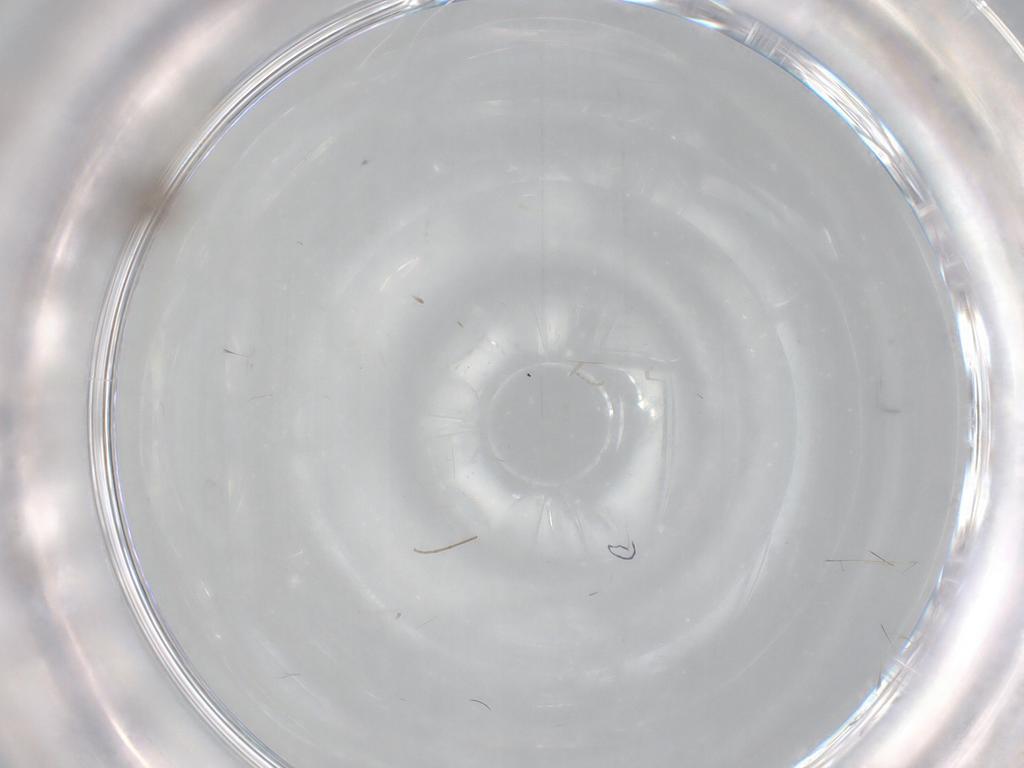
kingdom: Animalia
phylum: Arthropoda
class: Insecta
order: Hymenoptera
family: Mymaridae
